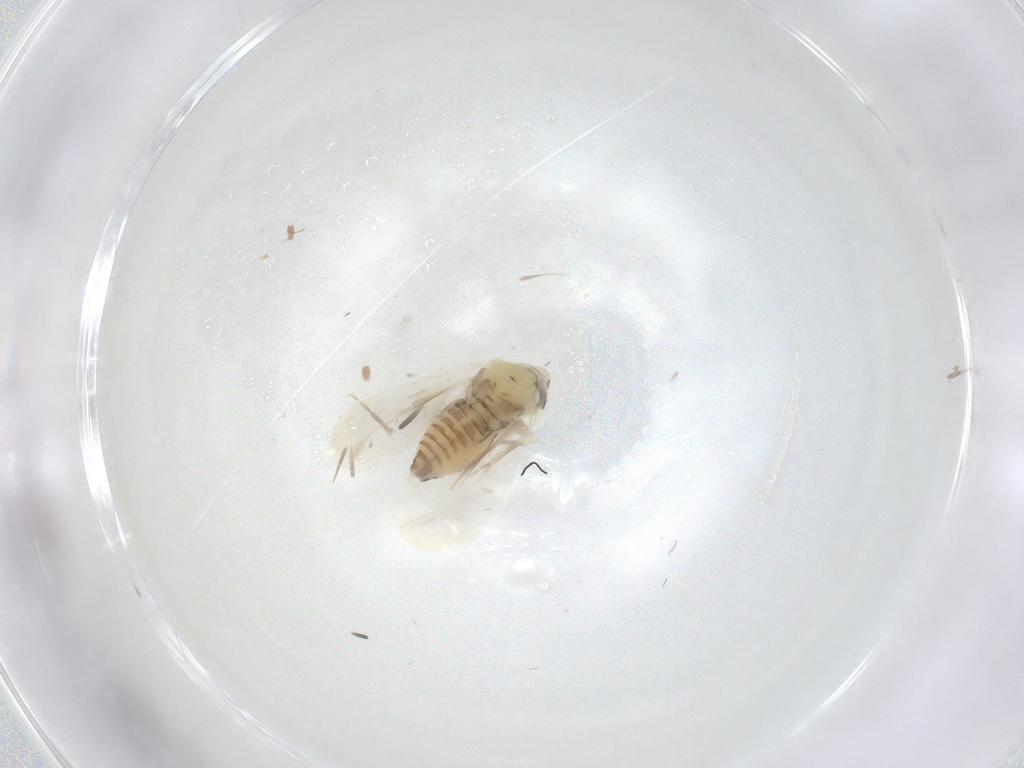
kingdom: Animalia
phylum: Arthropoda
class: Insecta
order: Hemiptera
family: Aleyrodidae
